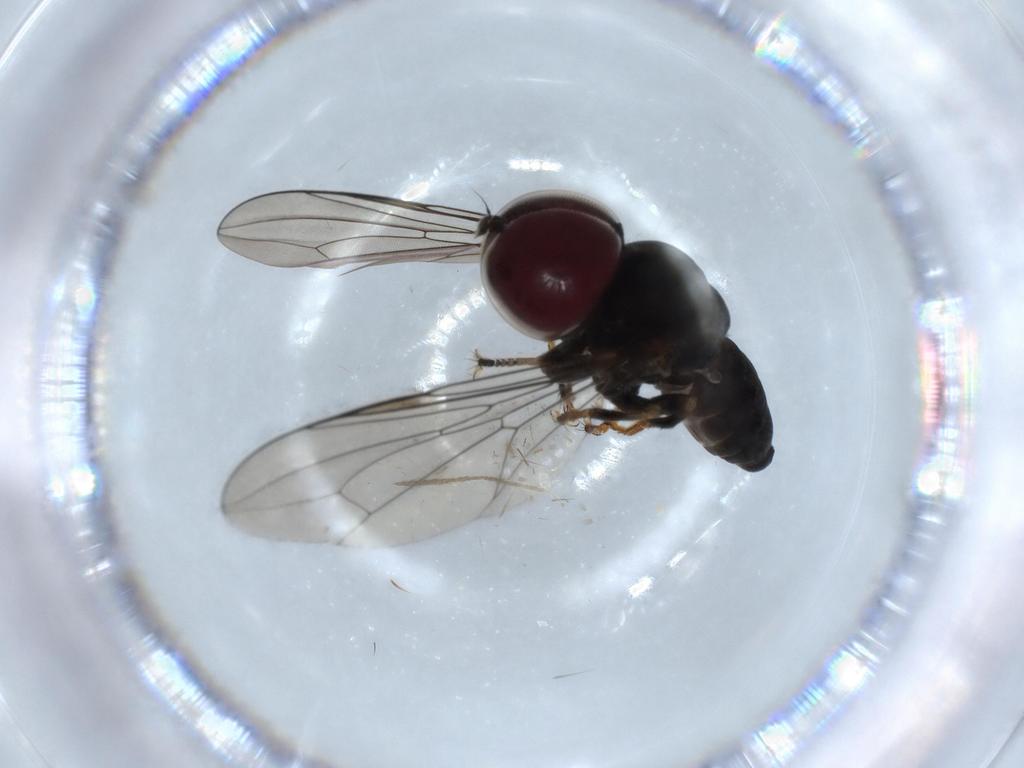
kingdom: Animalia
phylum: Arthropoda
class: Insecta
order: Diptera
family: Pipunculidae
